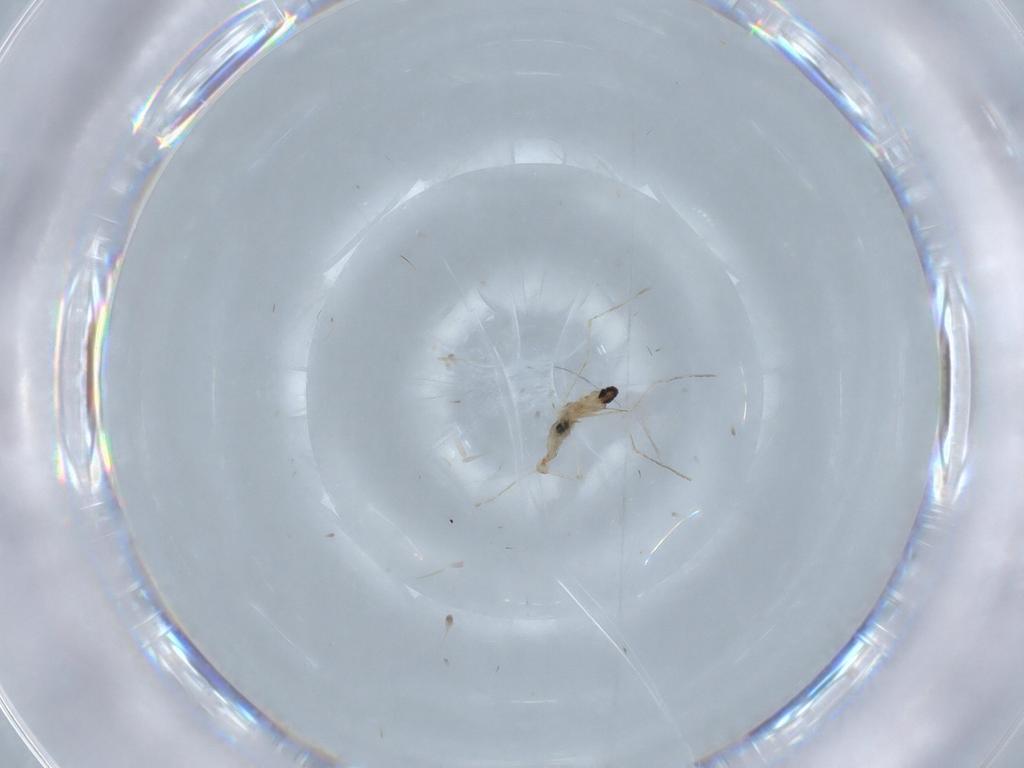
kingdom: Animalia
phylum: Arthropoda
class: Insecta
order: Diptera
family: Cecidomyiidae
